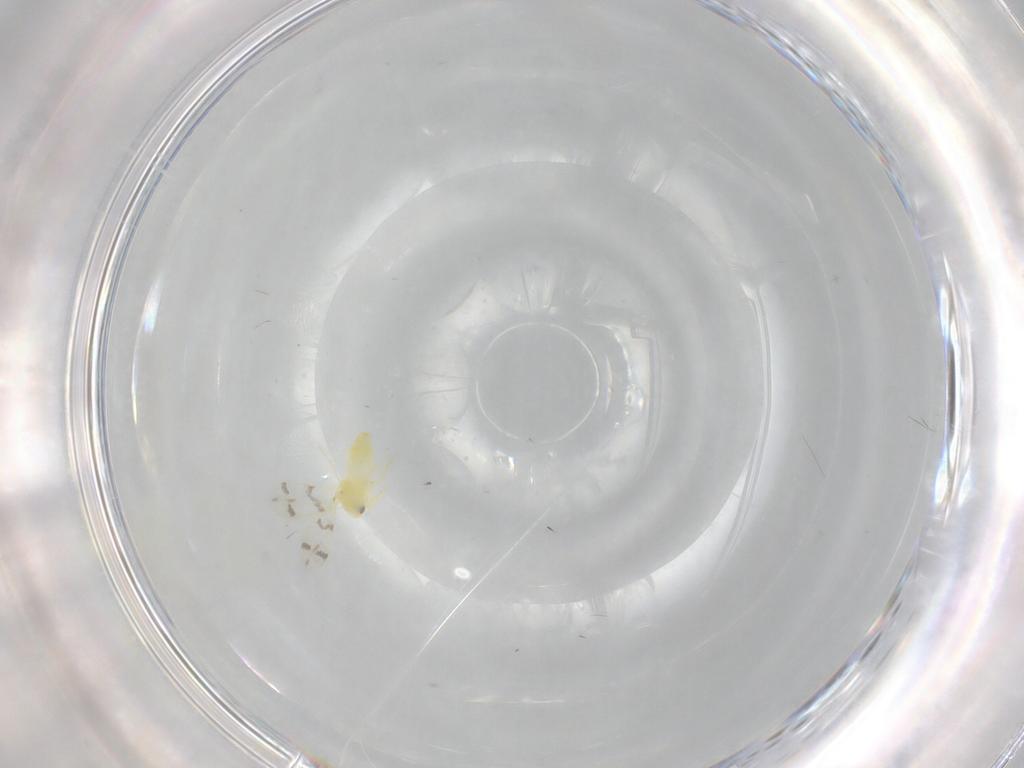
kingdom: Animalia
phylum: Arthropoda
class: Insecta
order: Hemiptera
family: Aleyrodidae
